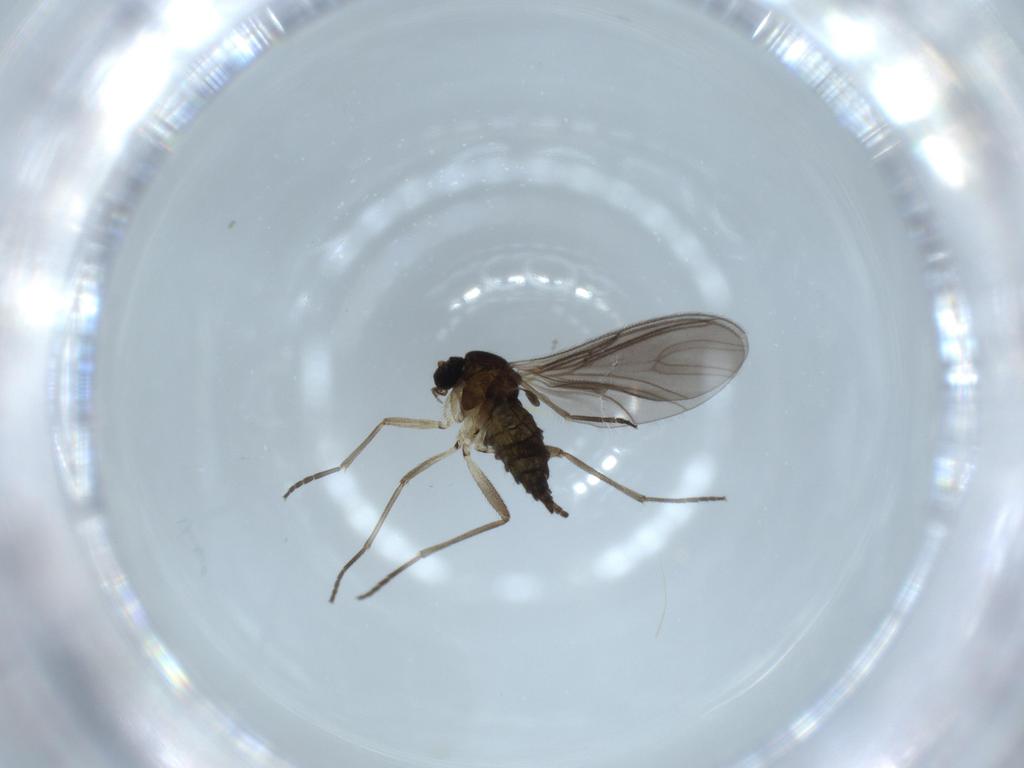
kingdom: Animalia
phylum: Arthropoda
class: Insecta
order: Diptera
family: Sciaridae
